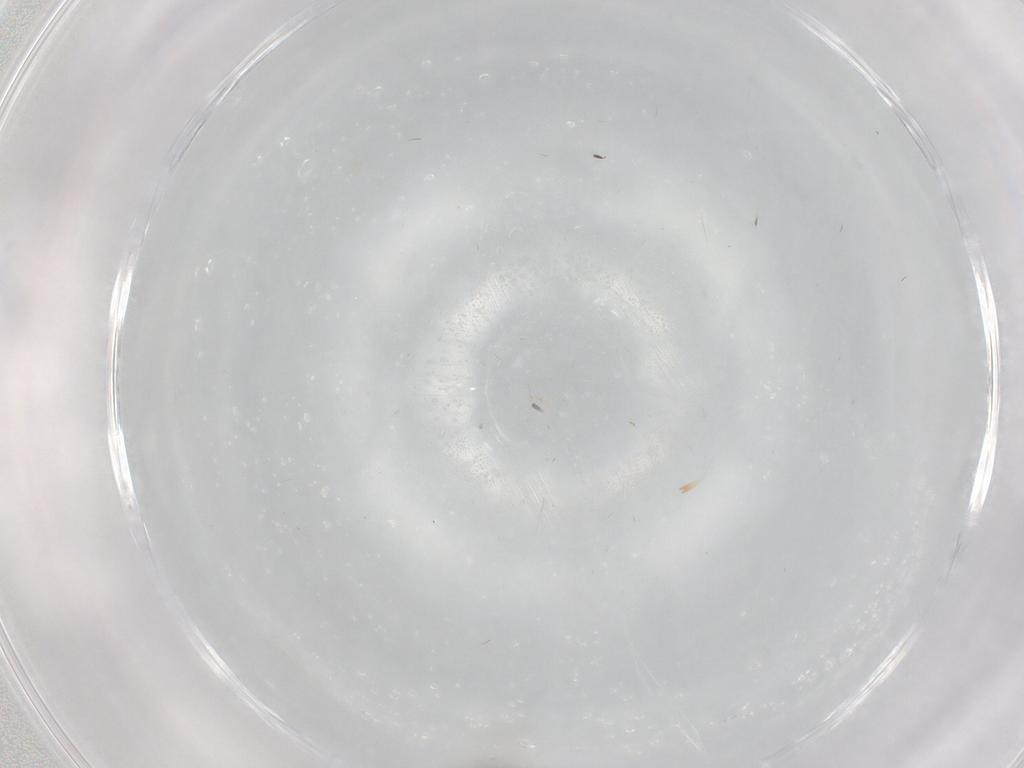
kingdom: Animalia
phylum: Arthropoda
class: Insecta
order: Hymenoptera
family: Mymaridae
